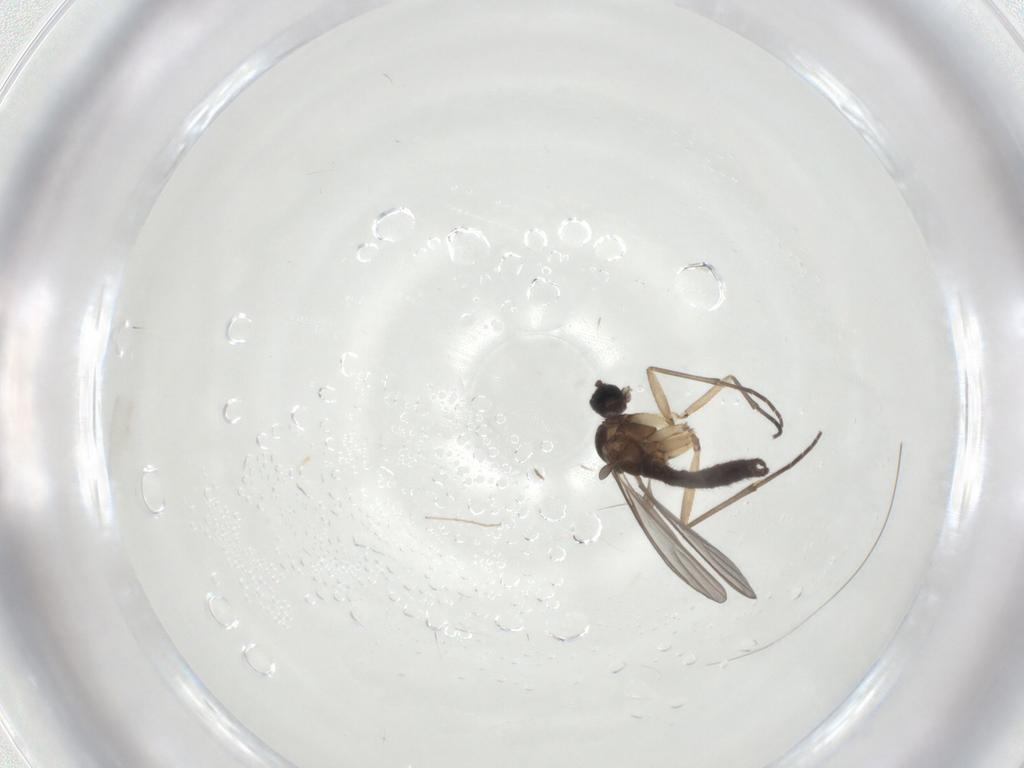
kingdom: Animalia
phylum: Arthropoda
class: Insecta
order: Diptera
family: Sciaridae
